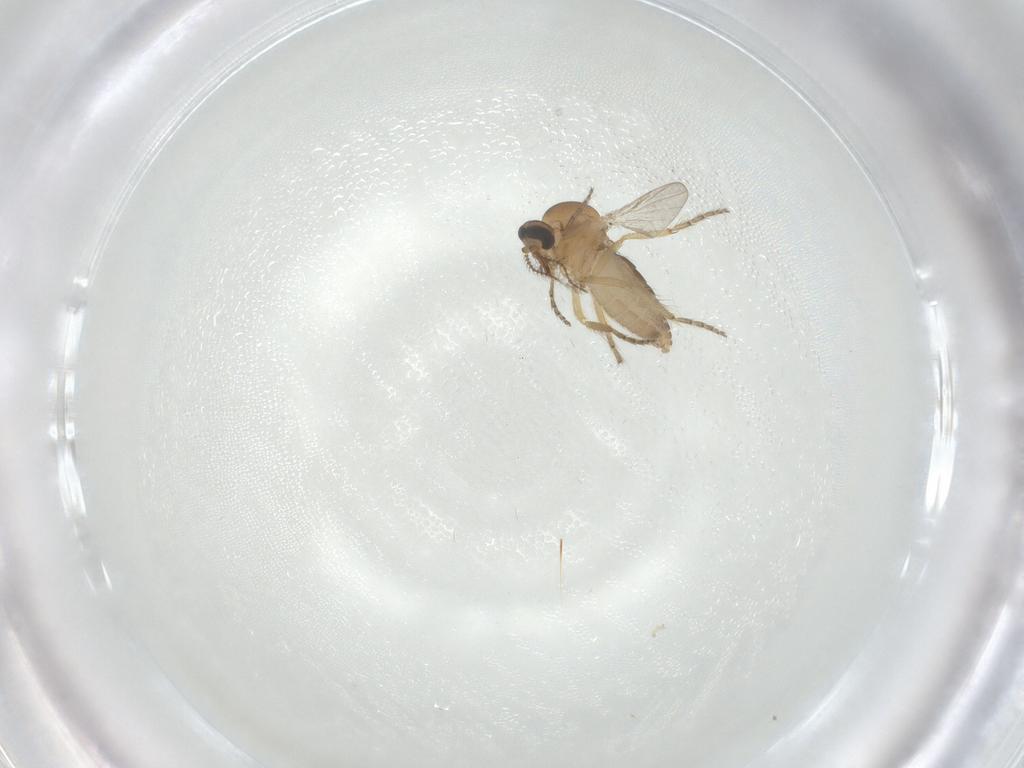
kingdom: Animalia
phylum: Arthropoda
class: Insecta
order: Diptera
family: Ceratopogonidae
